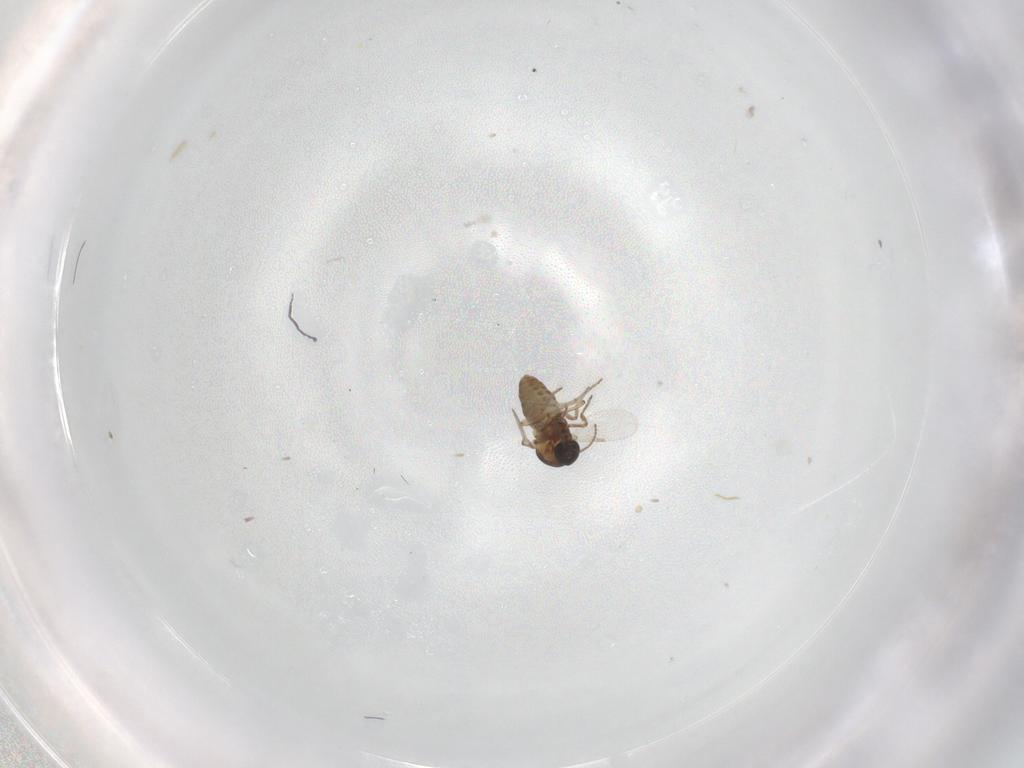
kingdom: Animalia
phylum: Arthropoda
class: Insecta
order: Diptera
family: Ceratopogonidae
